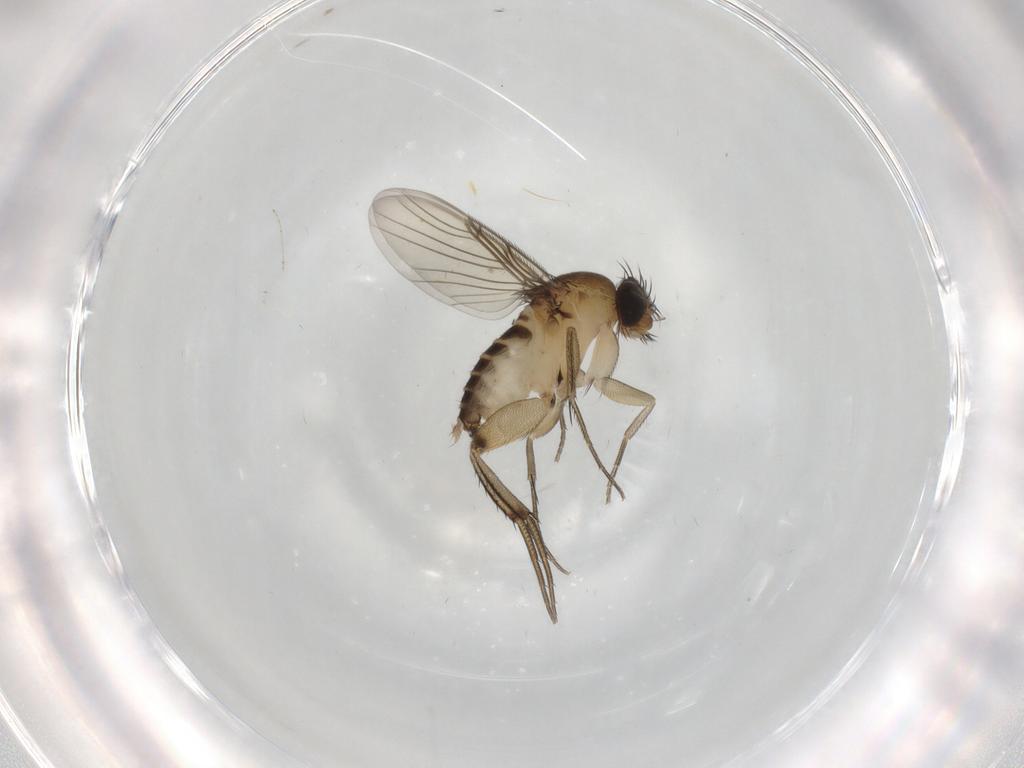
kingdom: Animalia
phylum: Arthropoda
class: Insecta
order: Diptera
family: Phoridae
